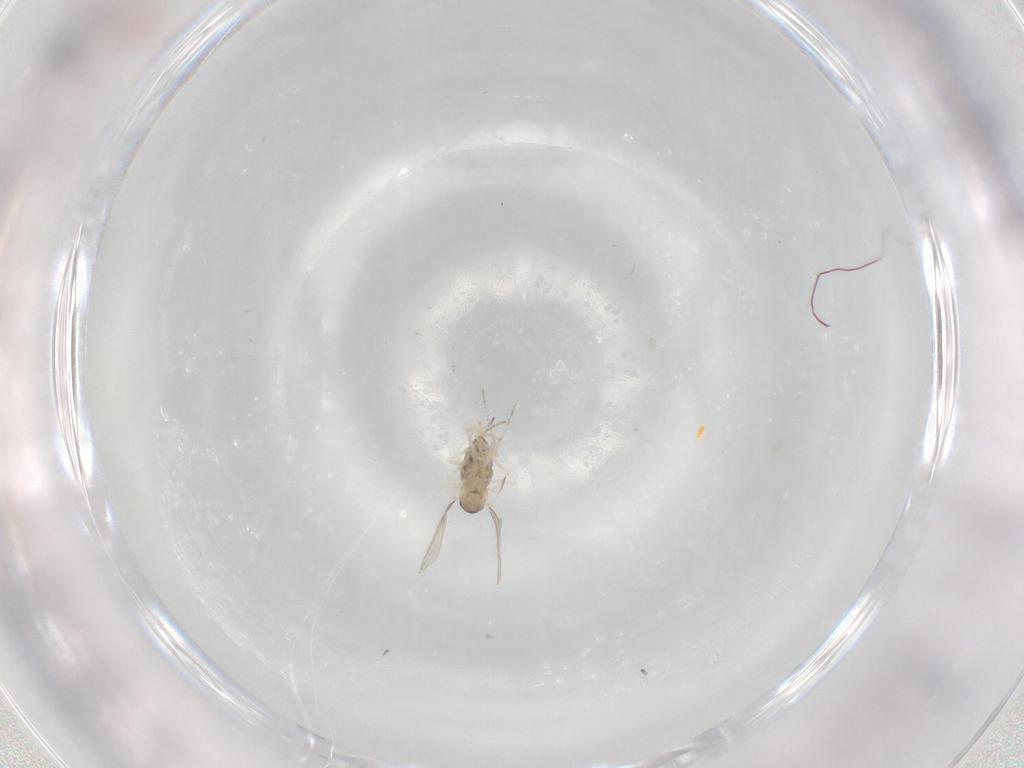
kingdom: Animalia
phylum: Arthropoda
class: Insecta
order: Diptera
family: Cecidomyiidae
